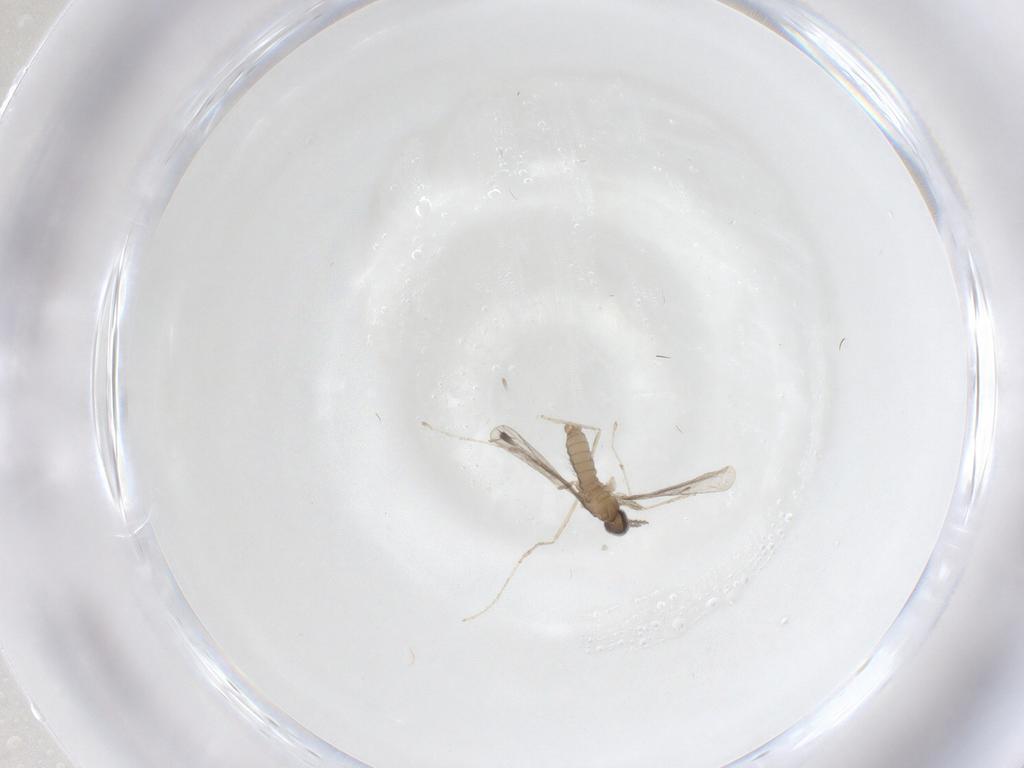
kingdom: Animalia
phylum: Arthropoda
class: Insecta
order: Diptera
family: Cecidomyiidae
